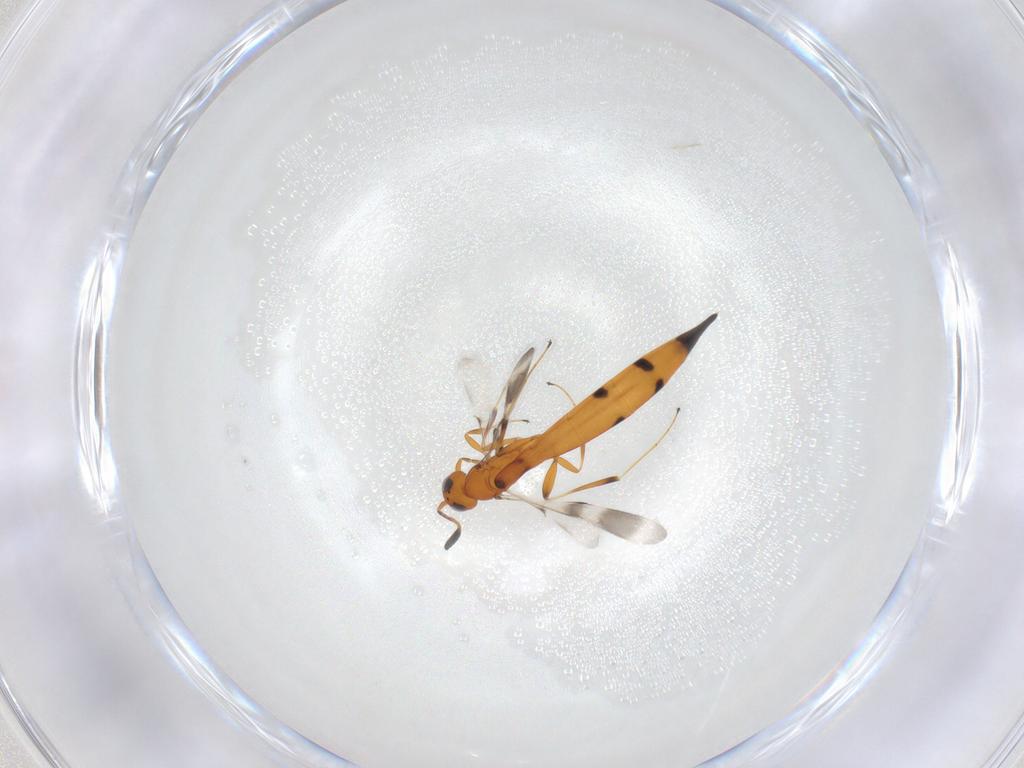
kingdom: Animalia
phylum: Arthropoda
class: Insecta
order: Hymenoptera
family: Scelionidae
